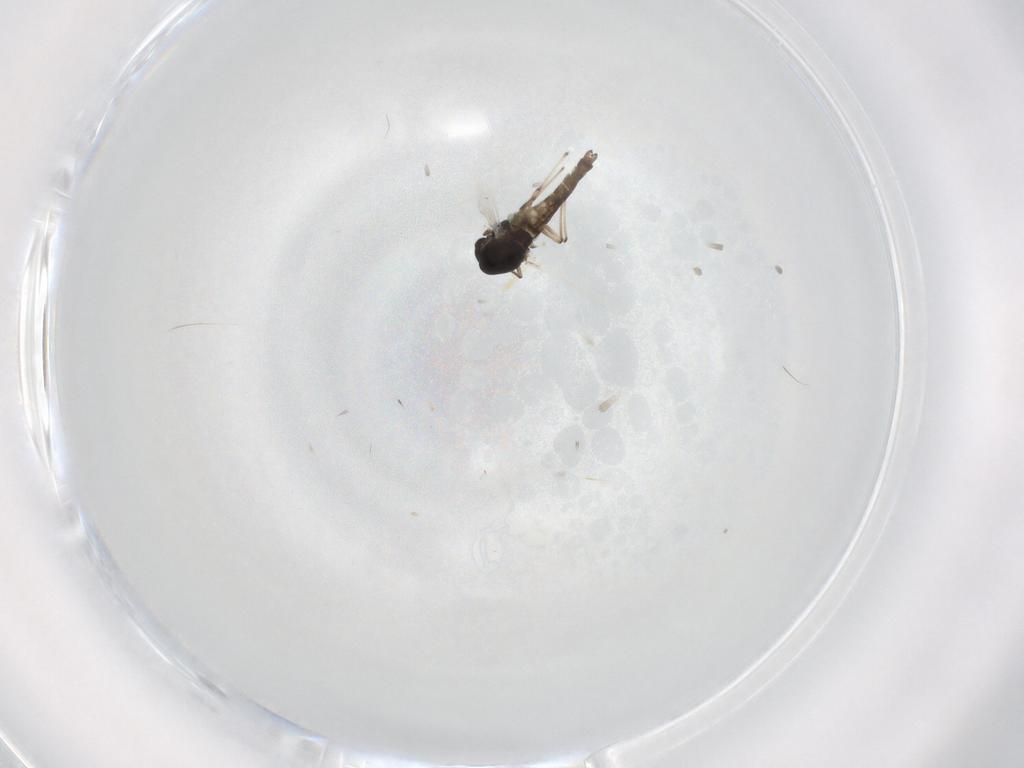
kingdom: Animalia
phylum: Arthropoda
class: Insecta
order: Diptera
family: Chironomidae
